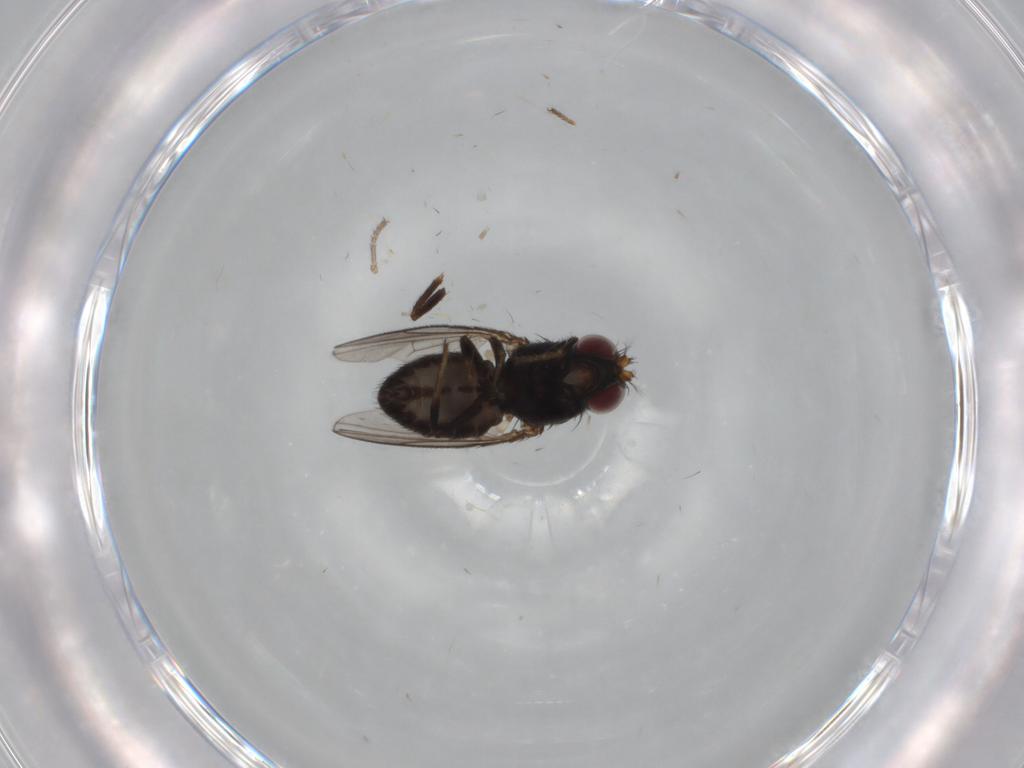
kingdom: Animalia
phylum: Arthropoda
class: Insecta
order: Diptera
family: Ephydridae
